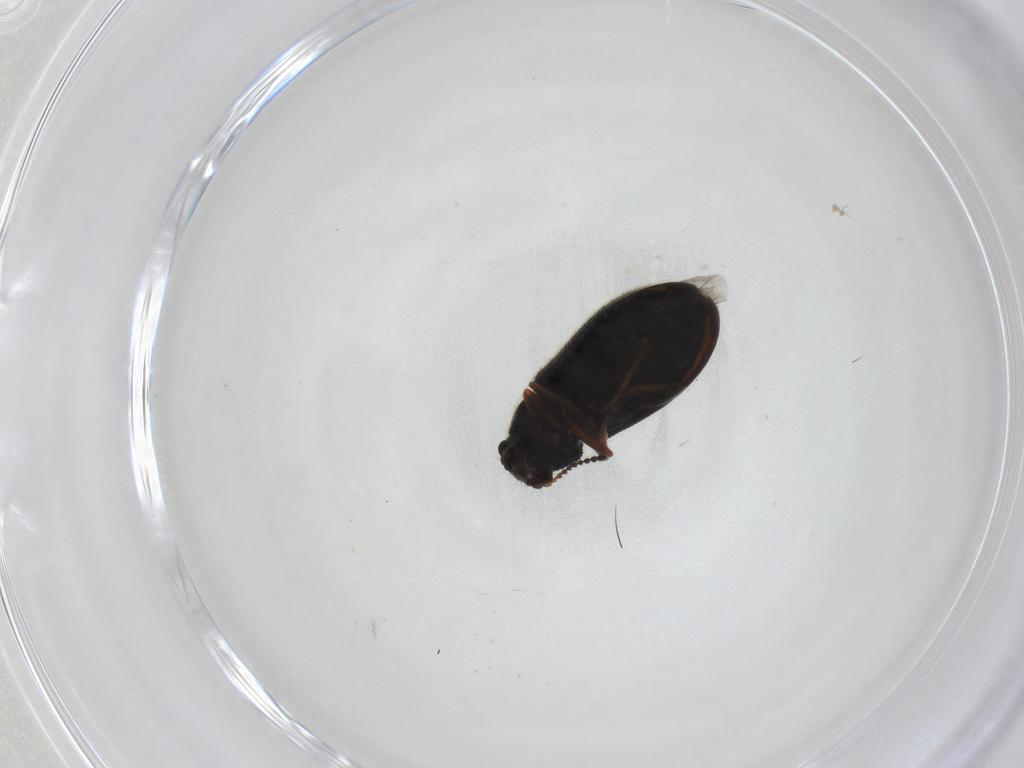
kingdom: Animalia
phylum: Arthropoda
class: Insecta
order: Coleoptera
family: Melyridae
